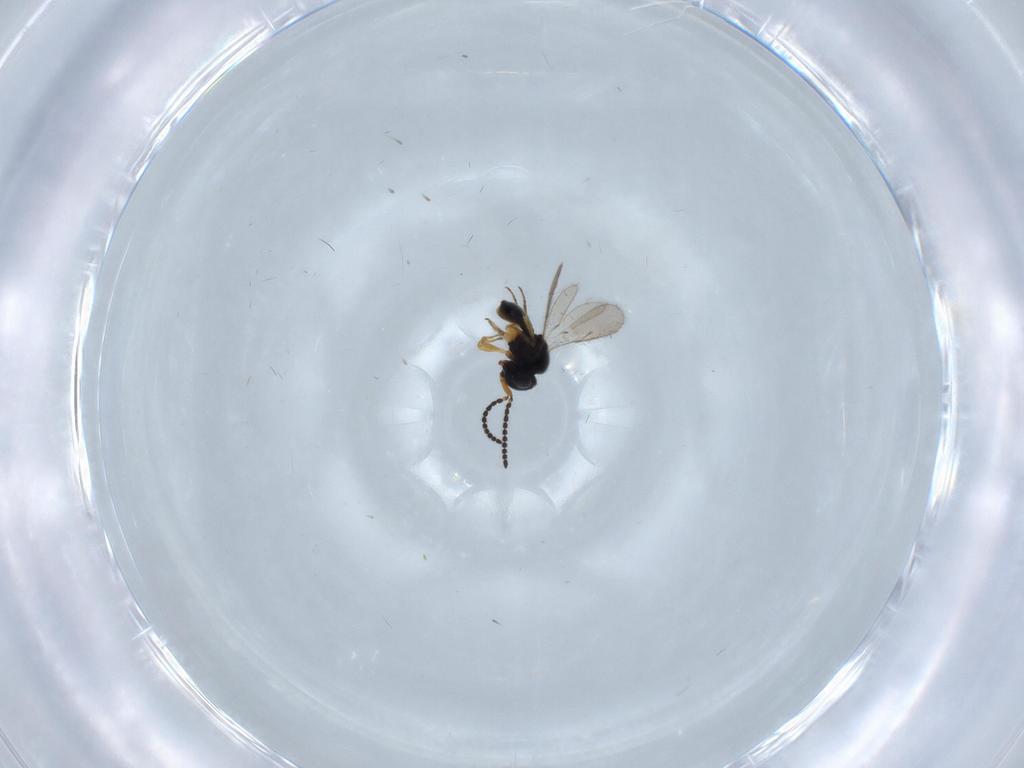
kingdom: Animalia
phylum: Arthropoda
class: Insecta
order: Hymenoptera
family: Scelionidae
